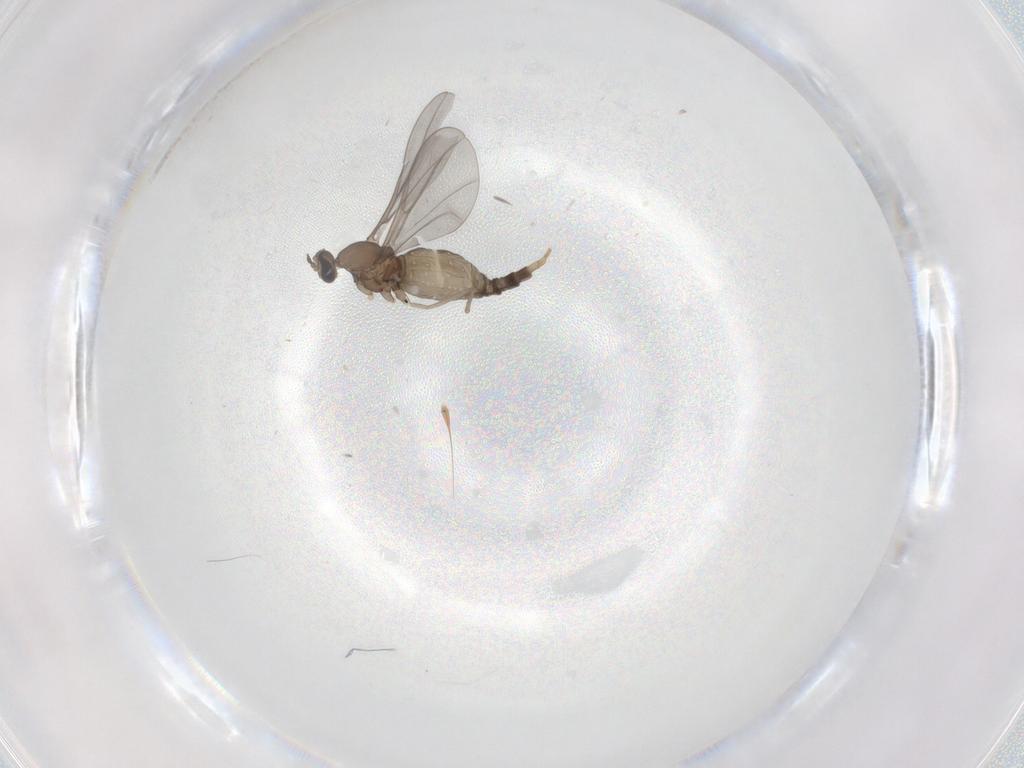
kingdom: Animalia
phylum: Arthropoda
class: Insecta
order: Diptera
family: Cecidomyiidae
